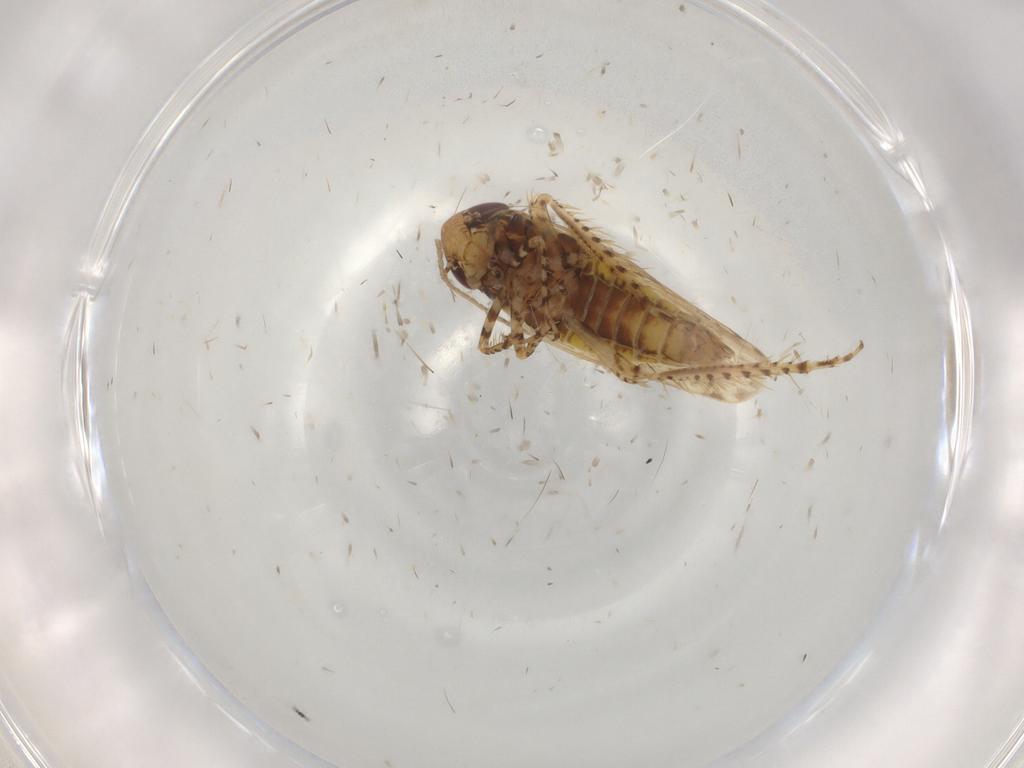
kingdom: Animalia
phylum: Arthropoda
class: Insecta
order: Hemiptera
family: Cicadellidae
